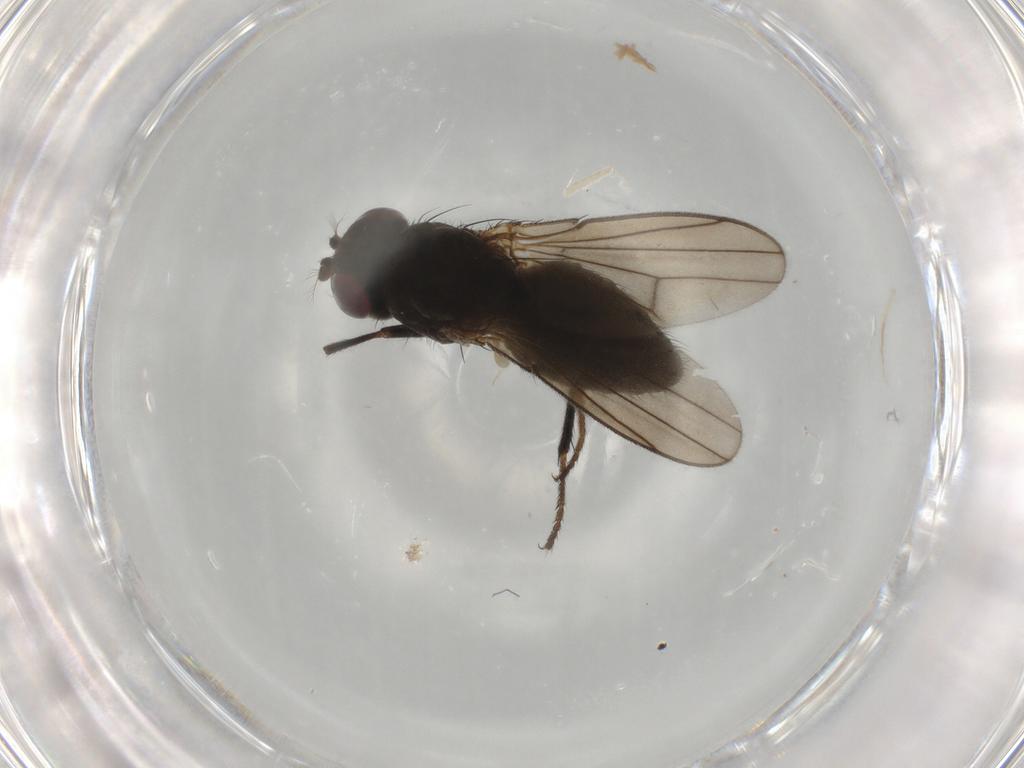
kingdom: Animalia
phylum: Arthropoda
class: Insecta
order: Diptera
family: Ephydridae
